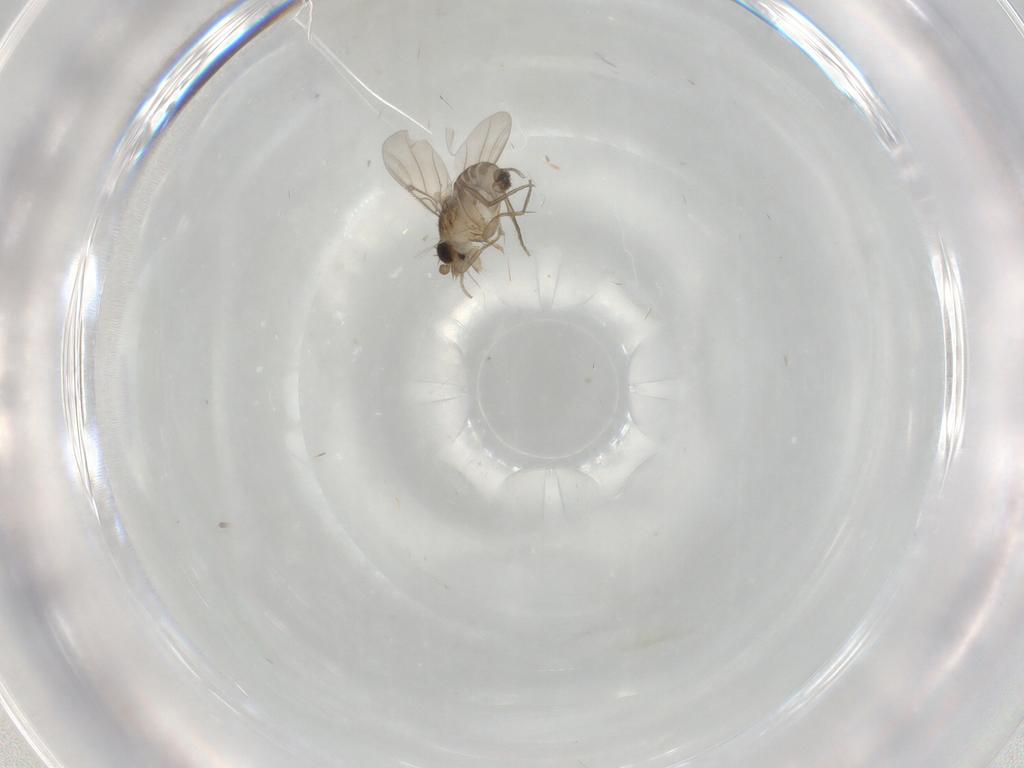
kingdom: Animalia
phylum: Arthropoda
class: Insecta
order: Diptera
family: Phoridae
